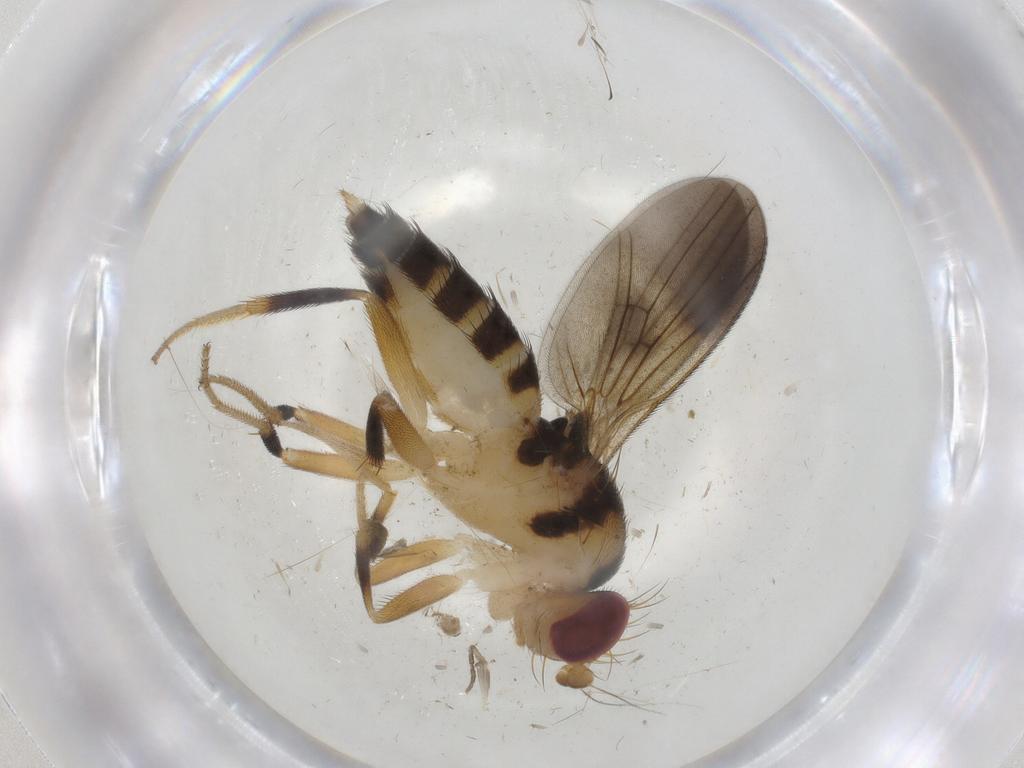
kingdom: Animalia
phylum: Arthropoda
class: Insecta
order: Diptera
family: Clusiidae
